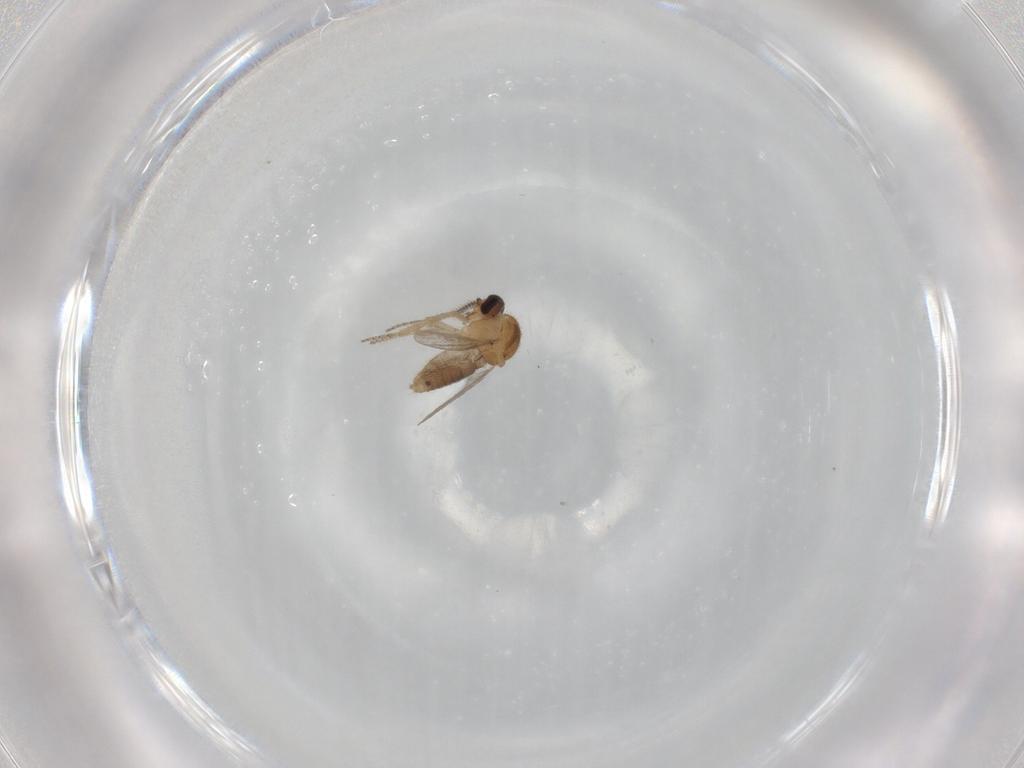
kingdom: Animalia
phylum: Arthropoda
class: Insecta
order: Diptera
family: Ceratopogonidae
